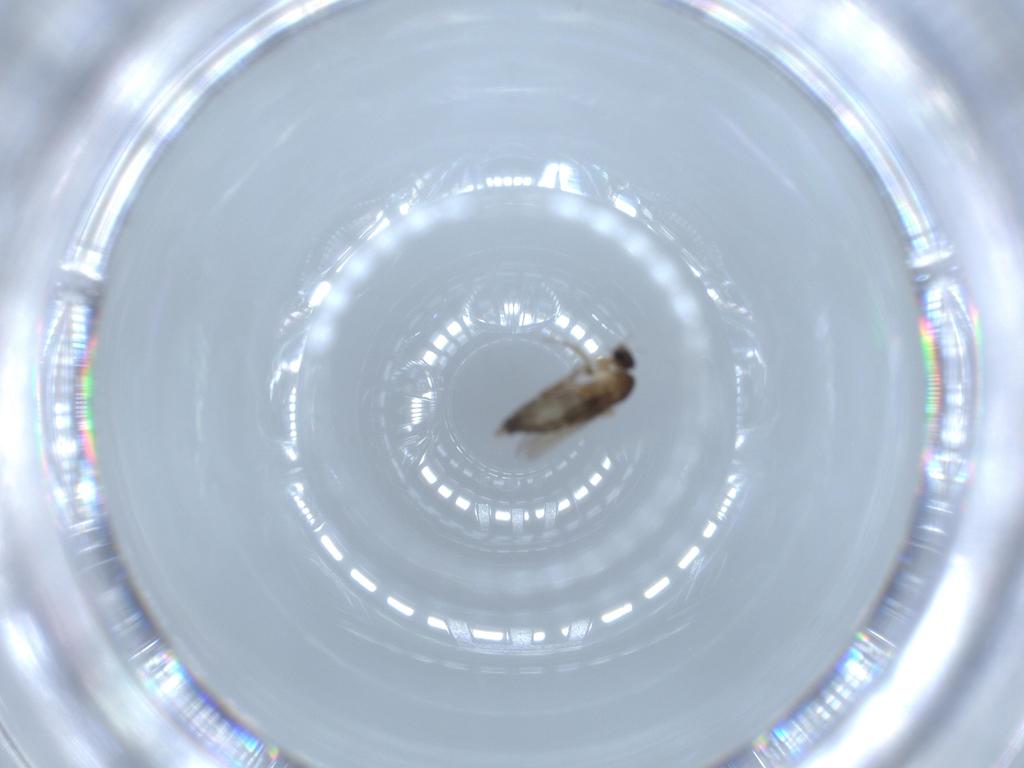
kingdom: Animalia
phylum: Arthropoda
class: Insecta
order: Diptera
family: Phoridae
